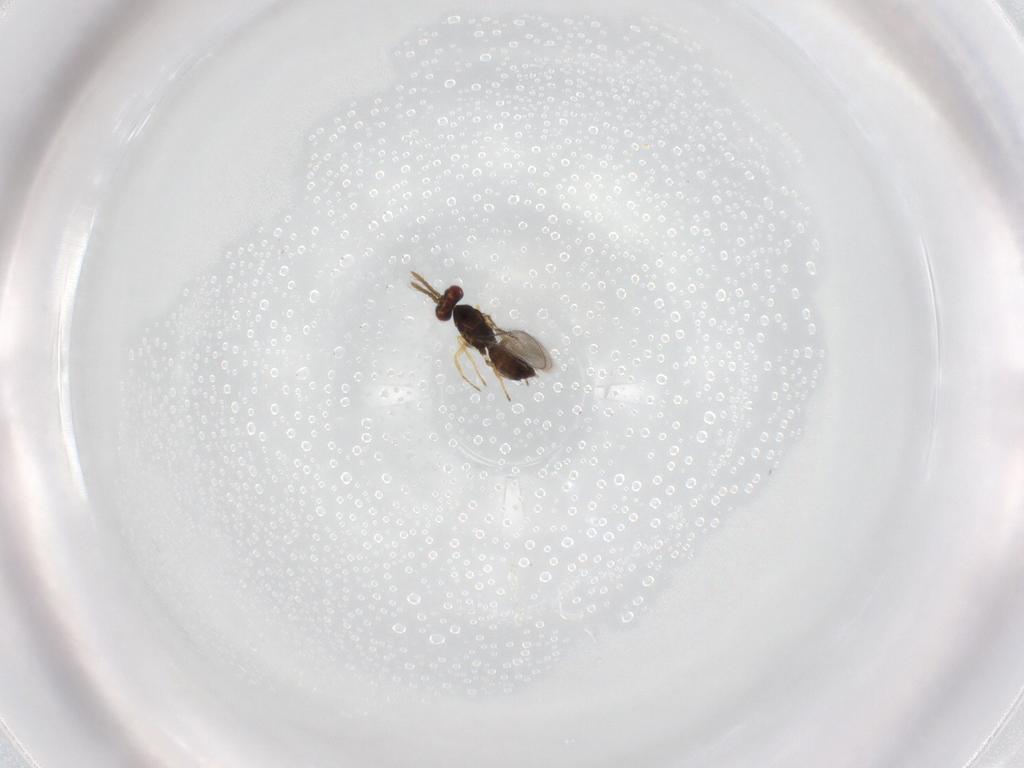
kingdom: Animalia
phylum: Arthropoda
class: Insecta
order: Hymenoptera
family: Eulophidae
